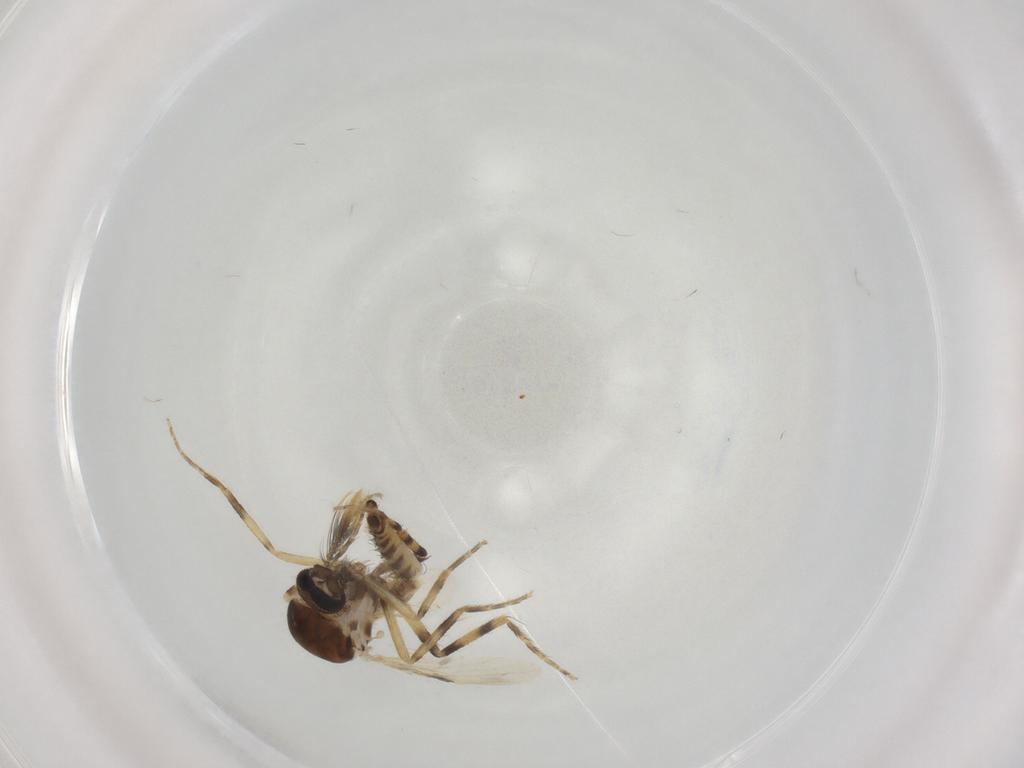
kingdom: Animalia
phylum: Arthropoda
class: Insecta
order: Diptera
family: Ceratopogonidae
